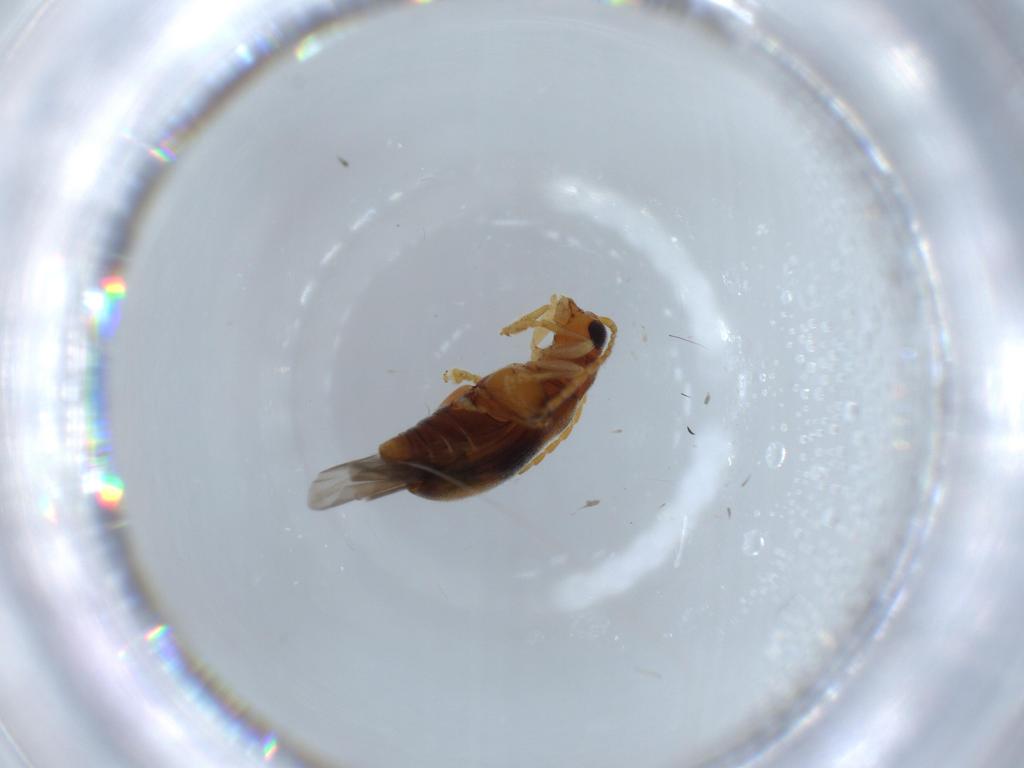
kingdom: Animalia
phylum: Arthropoda
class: Insecta
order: Coleoptera
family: Chrysomelidae
